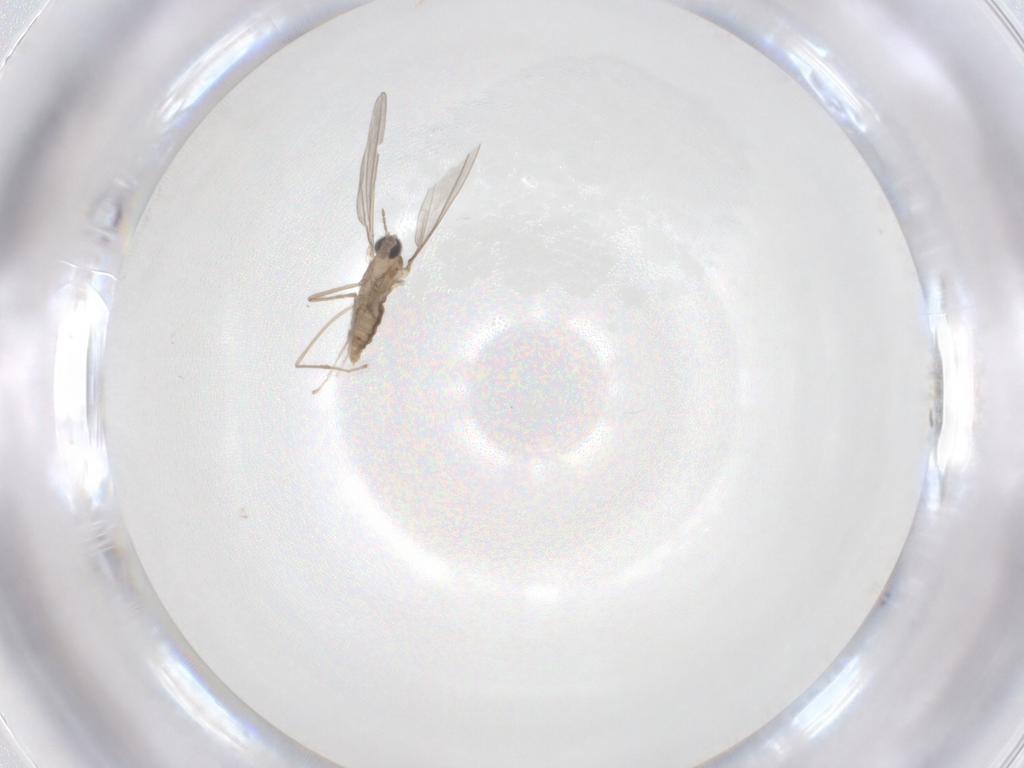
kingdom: Animalia
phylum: Arthropoda
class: Insecta
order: Diptera
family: Cecidomyiidae
